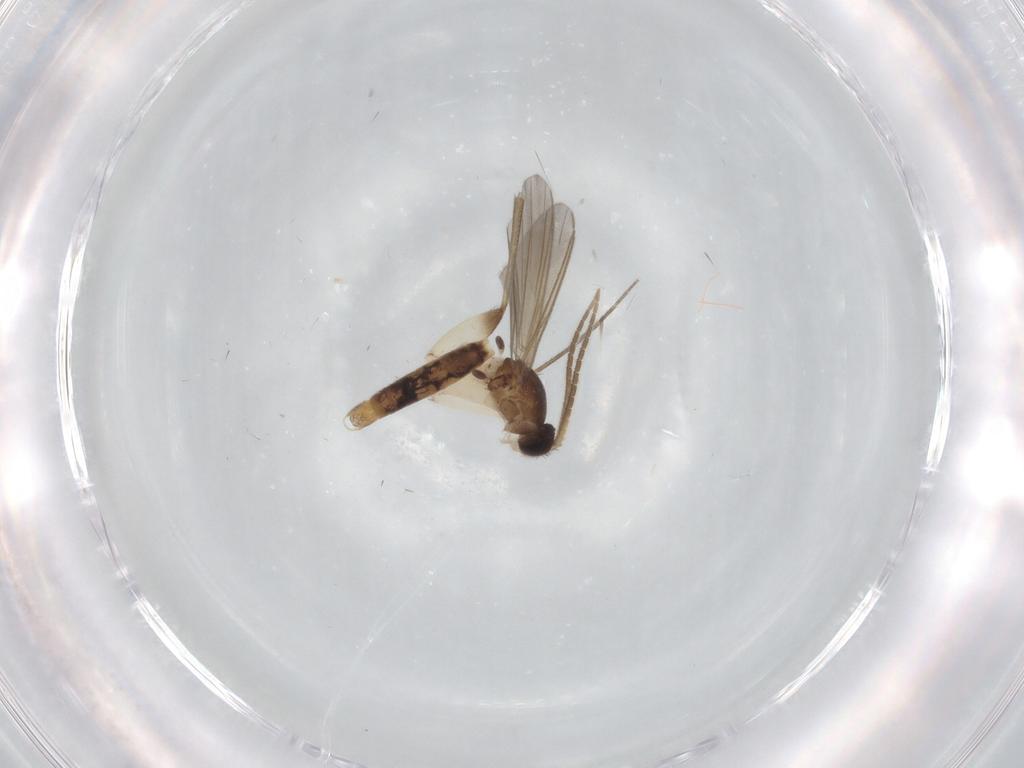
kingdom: Animalia
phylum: Arthropoda
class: Insecta
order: Diptera
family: Mycetophilidae
